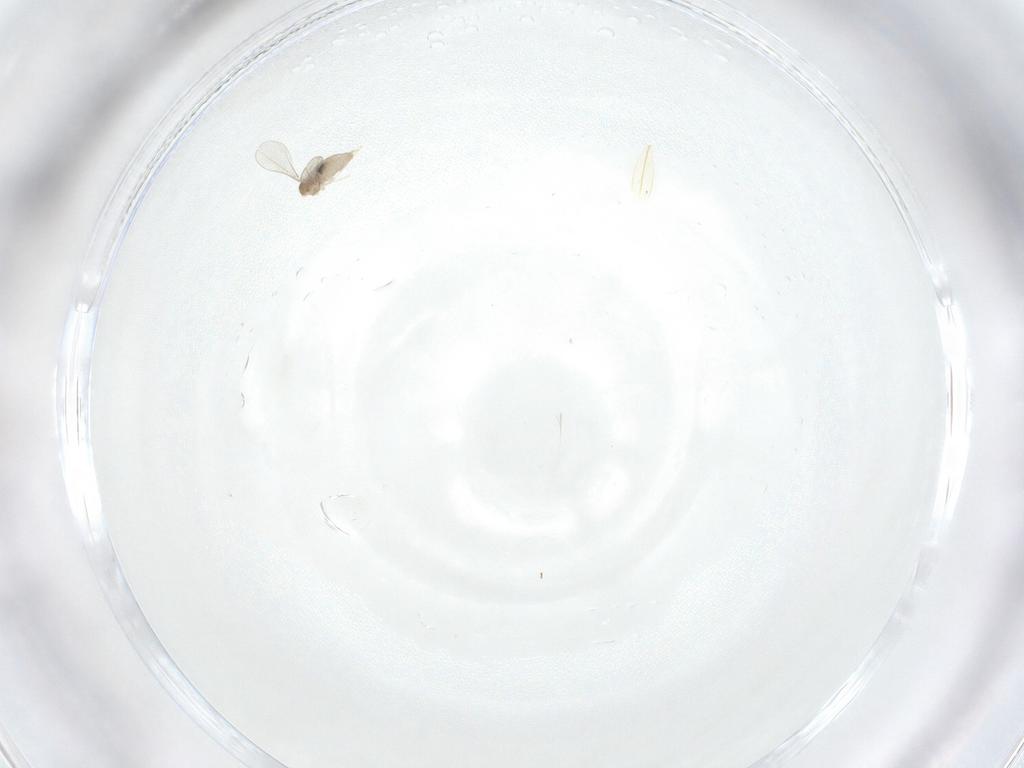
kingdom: Animalia
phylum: Arthropoda
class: Insecta
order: Diptera
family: Cecidomyiidae
